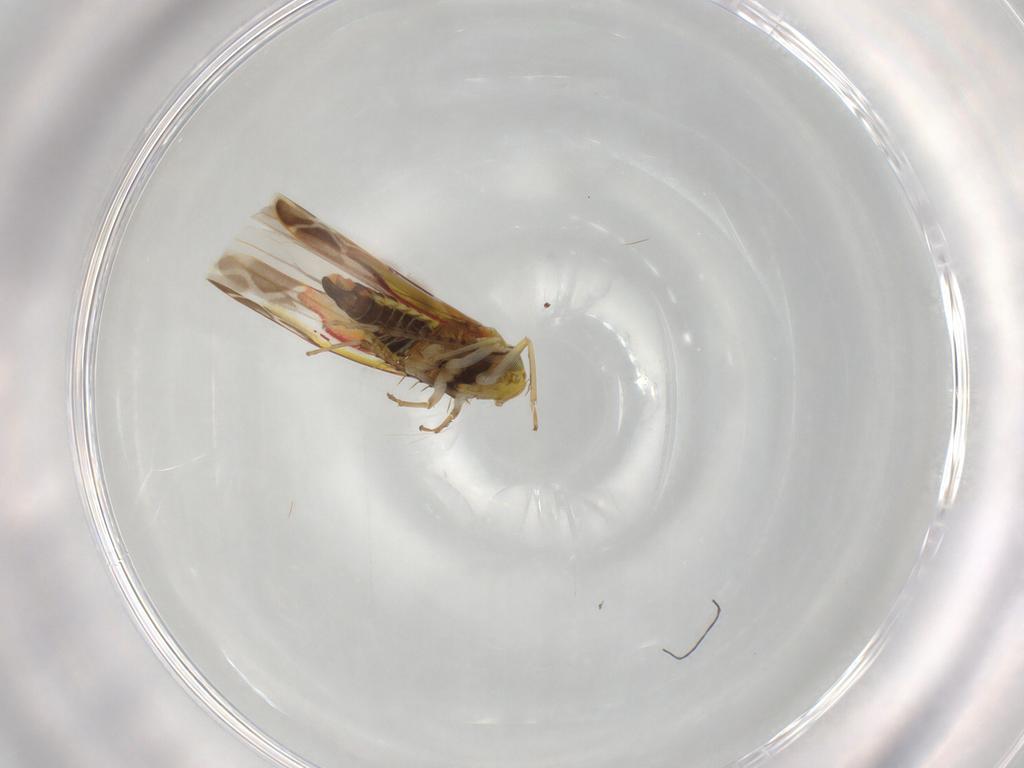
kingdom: Animalia
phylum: Arthropoda
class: Insecta
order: Hemiptera
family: Cicadellidae
